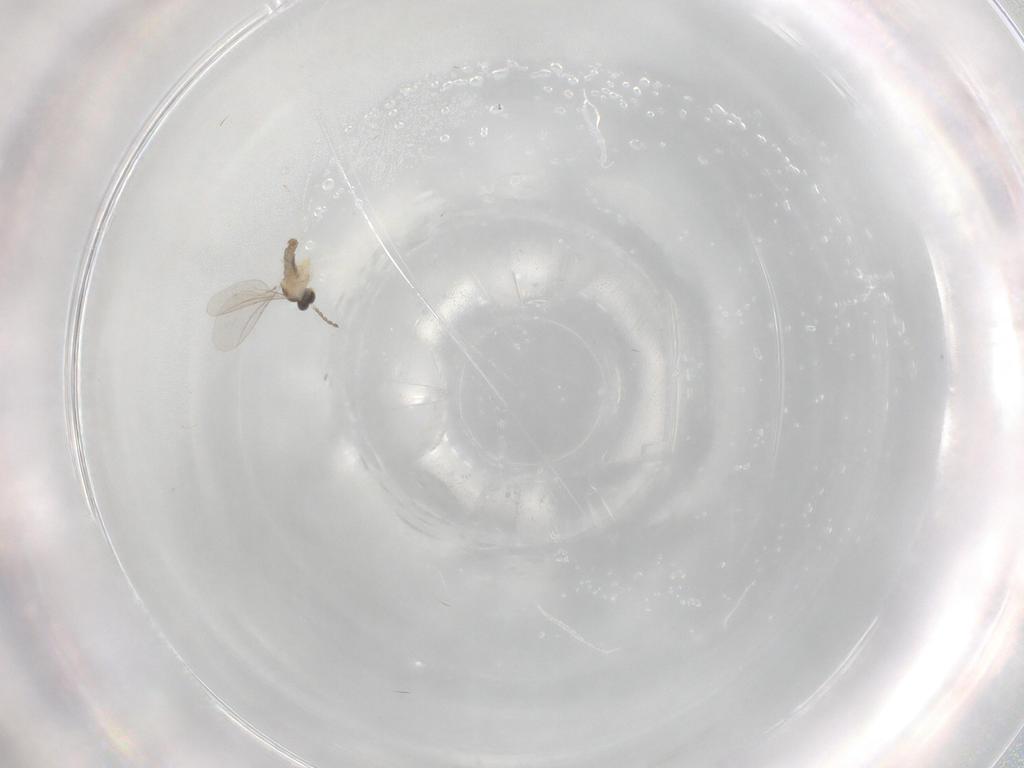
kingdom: Animalia
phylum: Arthropoda
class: Insecta
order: Diptera
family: Cecidomyiidae
